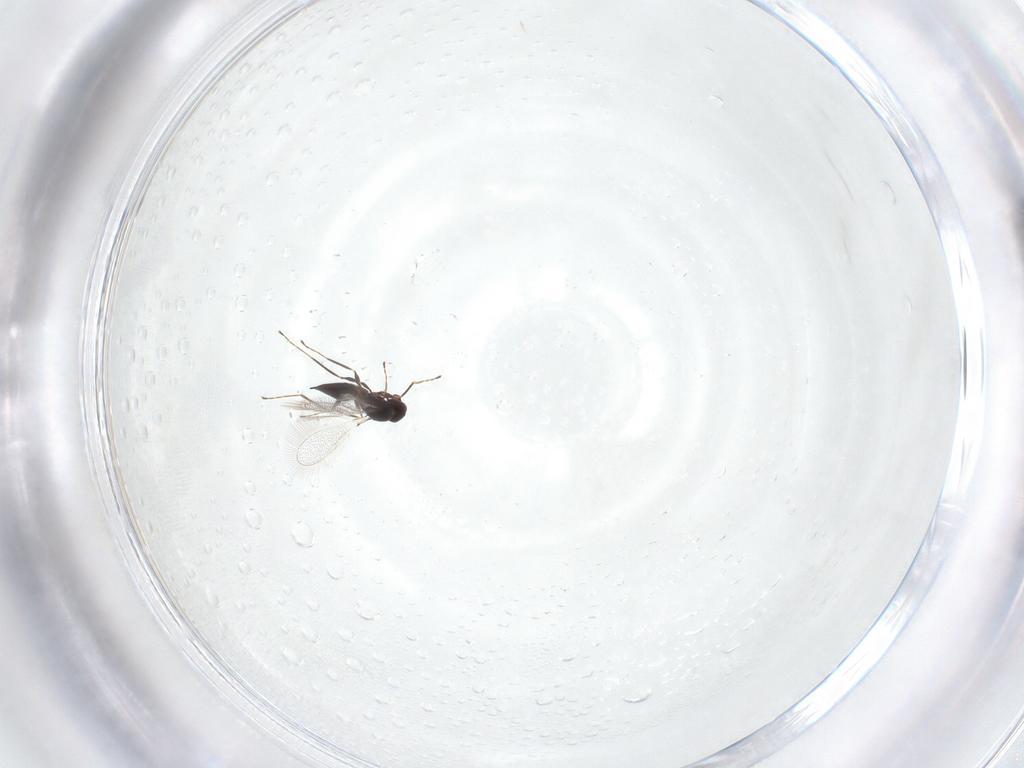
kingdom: Animalia
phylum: Arthropoda
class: Insecta
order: Hymenoptera
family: Mymaridae
